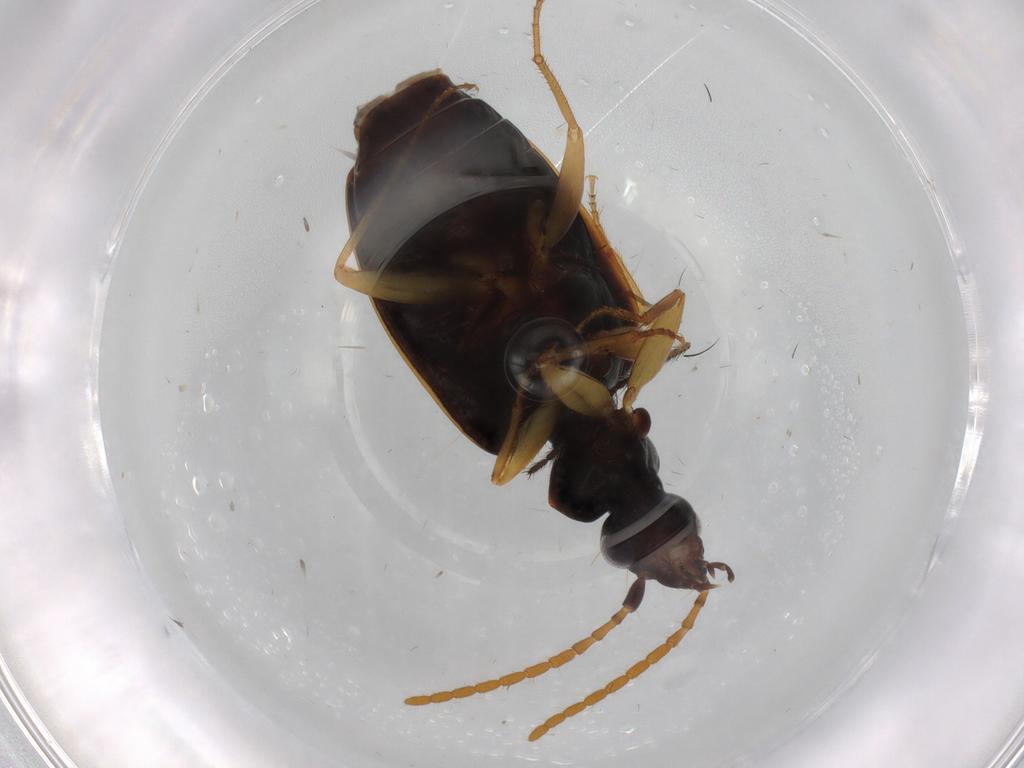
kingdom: Animalia
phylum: Arthropoda
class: Insecta
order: Coleoptera
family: Carabidae
